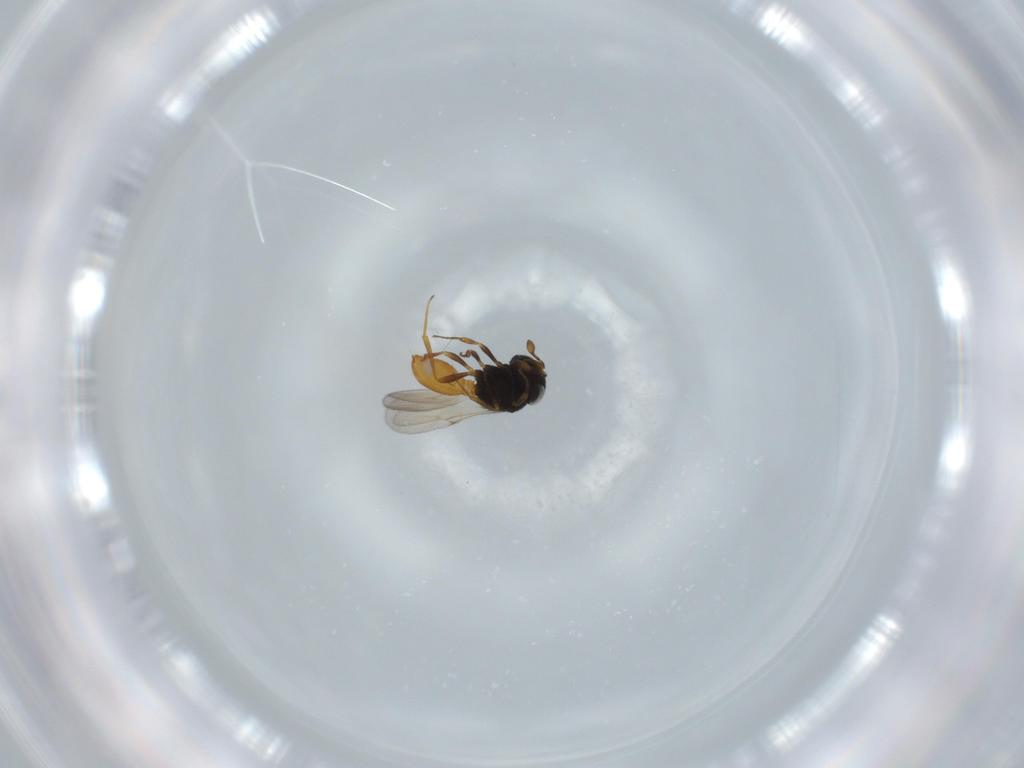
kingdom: Animalia
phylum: Arthropoda
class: Insecta
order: Hymenoptera
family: Scelionidae
